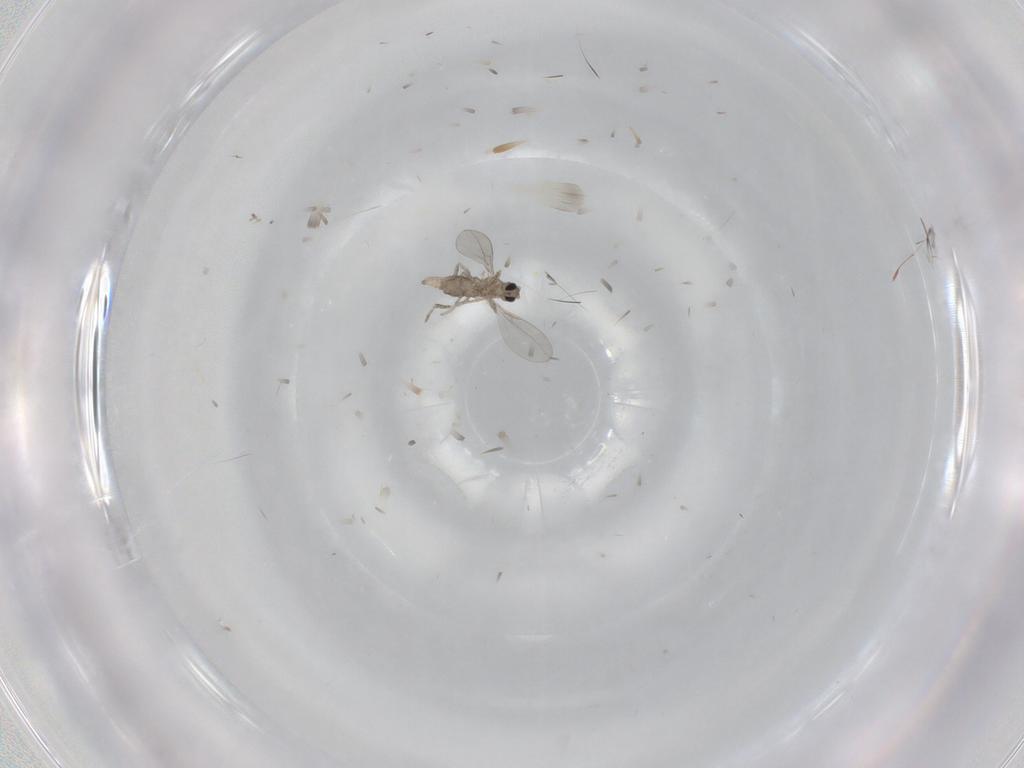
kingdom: Animalia
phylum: Arthropoda
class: Insecta
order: Diptera
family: Cecidomyiidae
